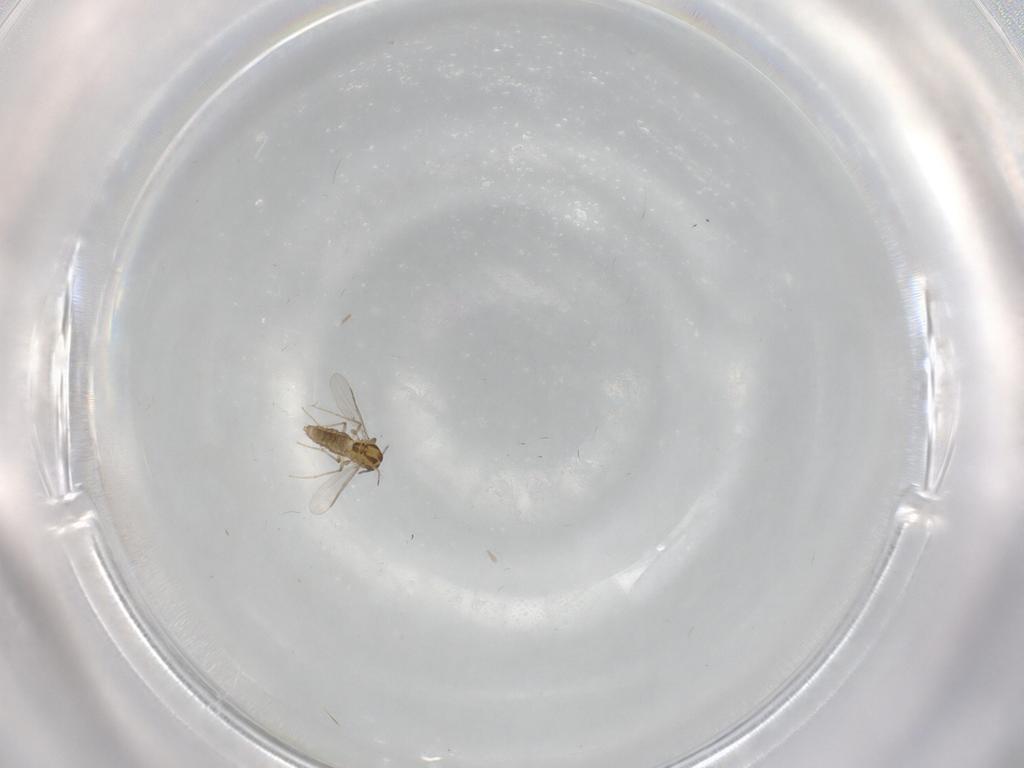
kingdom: Animalia
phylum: Arthropoda
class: Insecta
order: Diptera
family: Chironomidae
